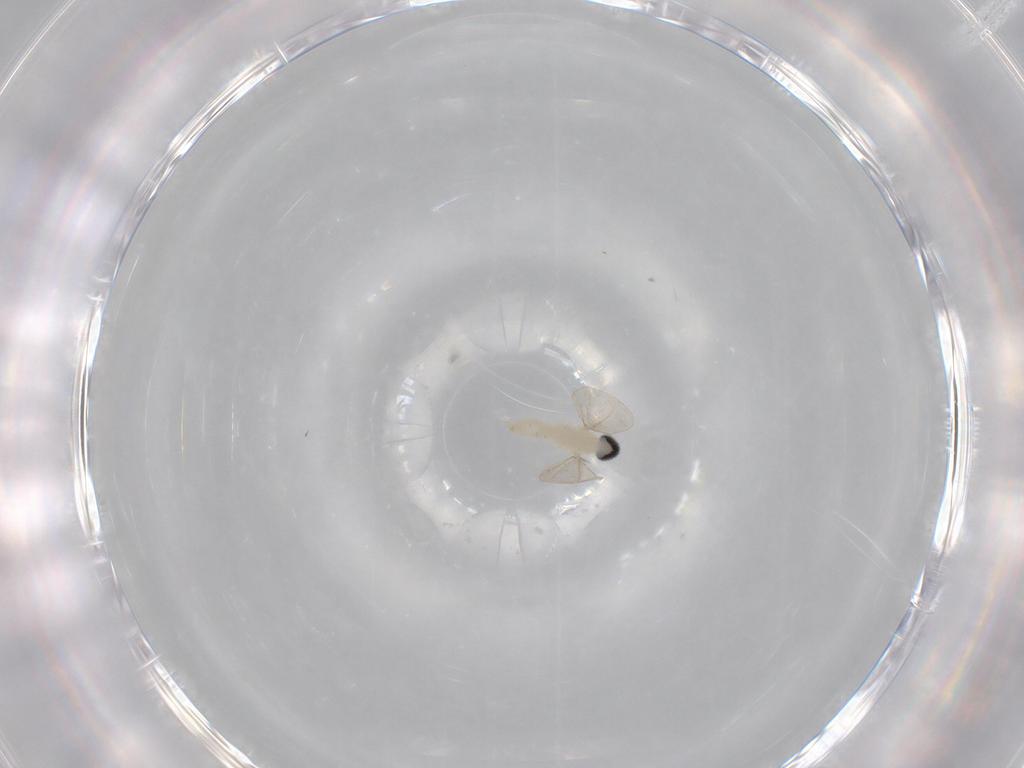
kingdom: Animalia
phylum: Arthropoda
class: Insecta
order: Diptera
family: Cecidomyiidae
